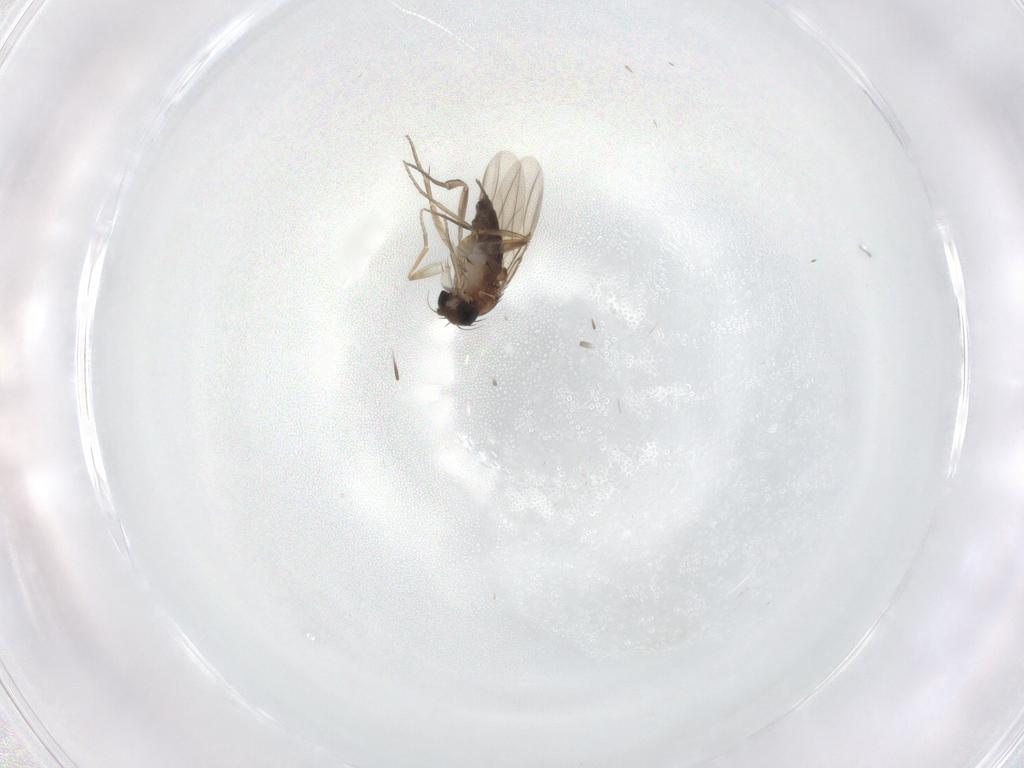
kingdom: Animalia
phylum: Arthropoda
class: Insecta
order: Diptera
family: Phoridae
